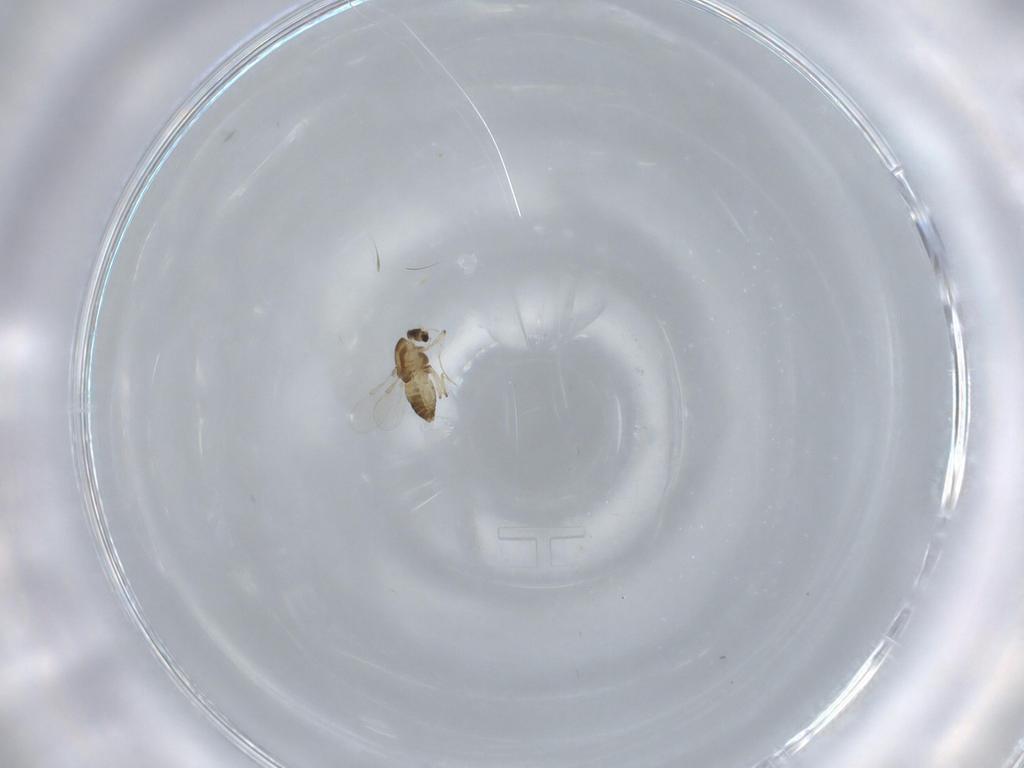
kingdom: Animalia
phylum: Arthropoda
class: Insecta
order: Diptera
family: Chironomidae
